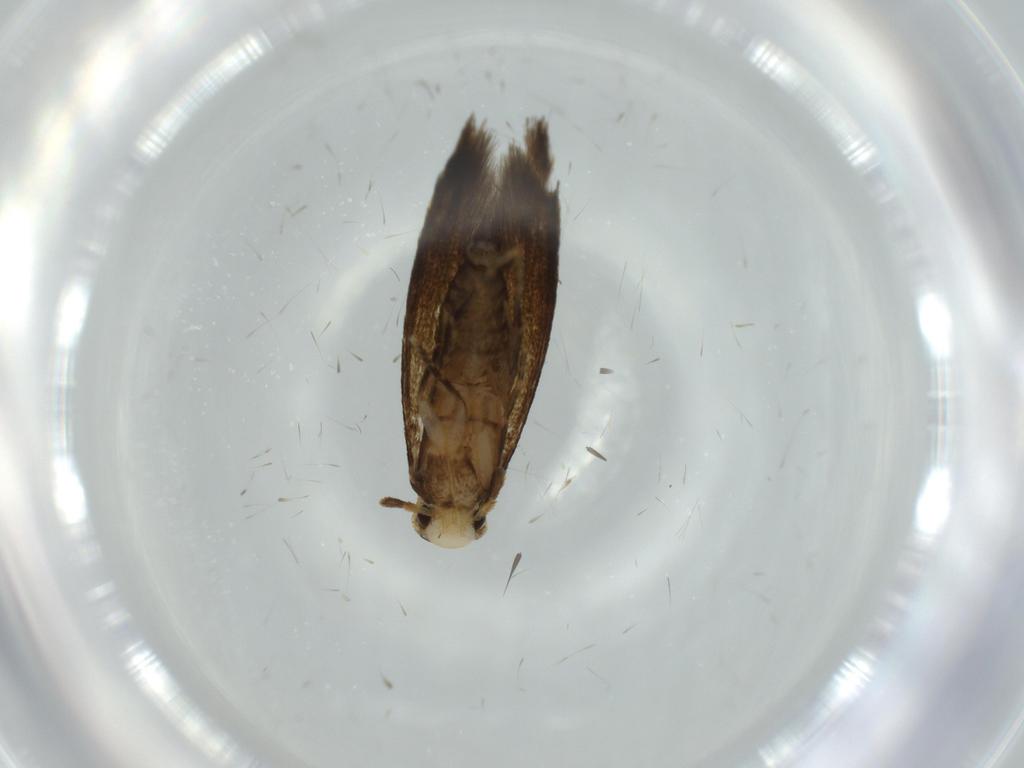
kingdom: Animalia
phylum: Arthropoda
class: Insecta
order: Lepidoptera
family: Tineidae
